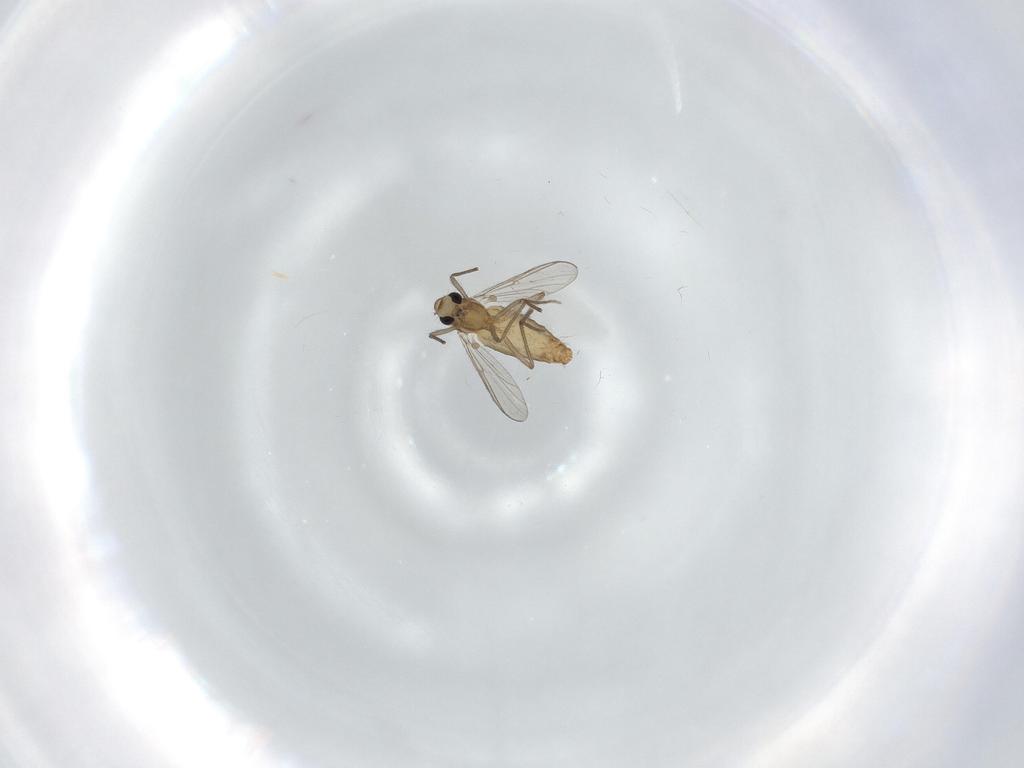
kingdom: Animalia
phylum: Arthropoda
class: Insecta
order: Diptera
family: Chironomidae
